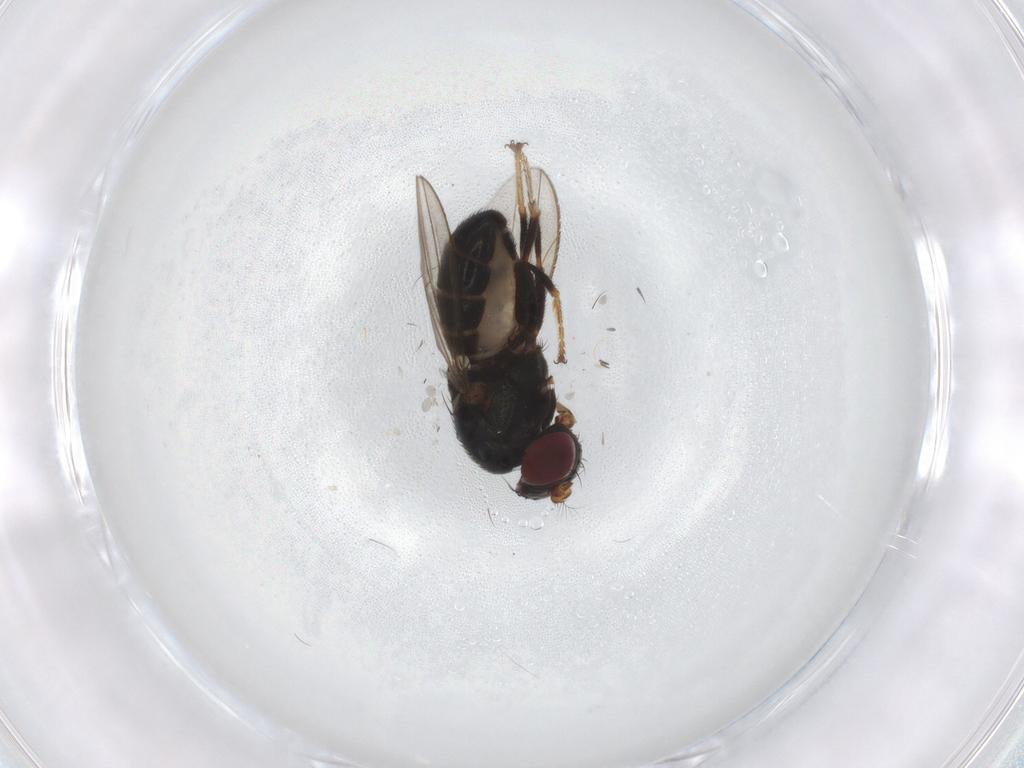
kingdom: Animalia
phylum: Arthropoda
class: Insecta
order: Diptera
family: Ephydridae
